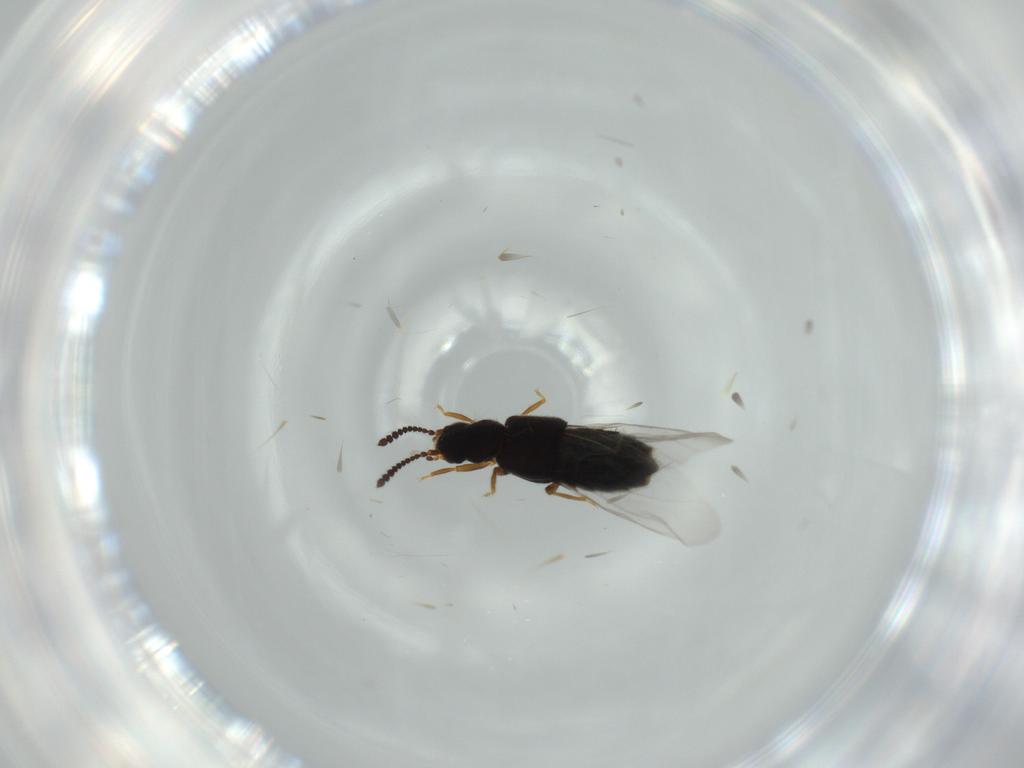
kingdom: Animalia
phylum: Arthropoda
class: Insecta
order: Coleoptera
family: Staphylinidae
